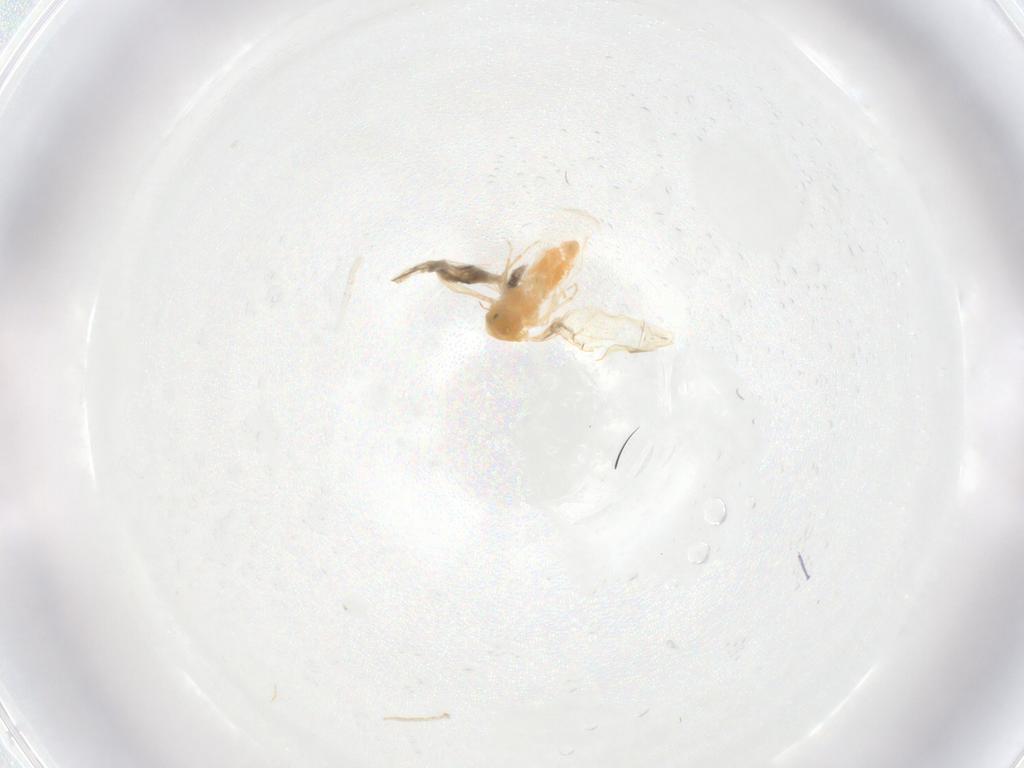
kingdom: Animalia
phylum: Arthropoda
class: Insecta
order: Hemiptera
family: Aleyrodidae
